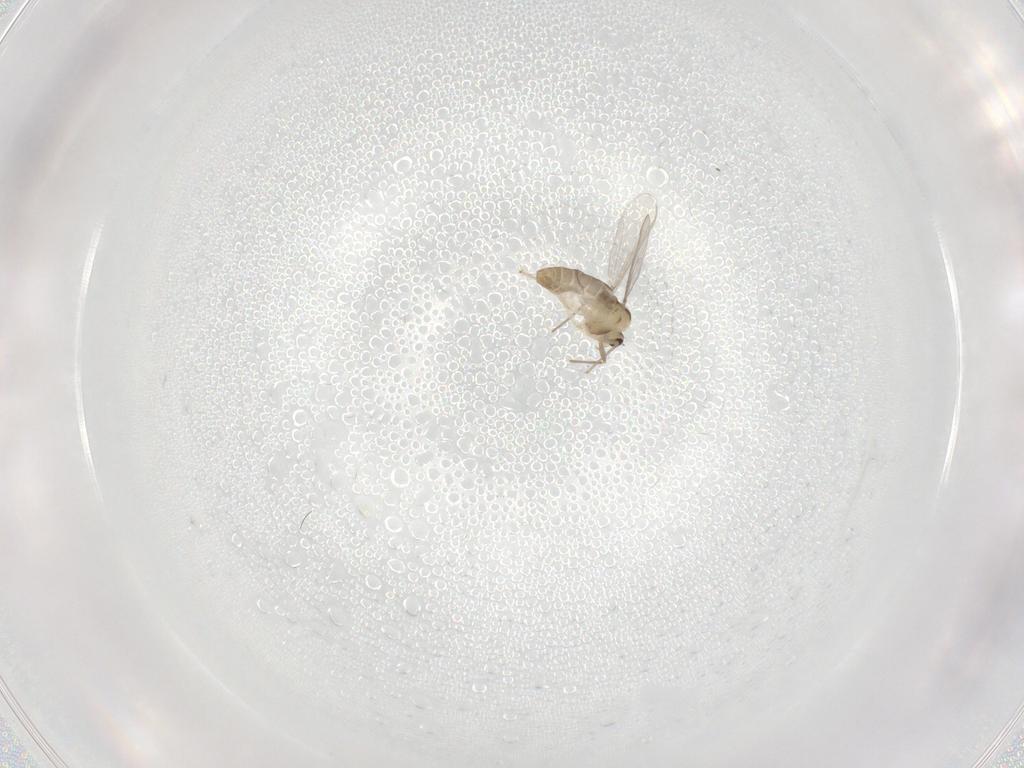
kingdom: Animalia
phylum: Arthropoda
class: Insecta
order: Diptera
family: Chironomidae
